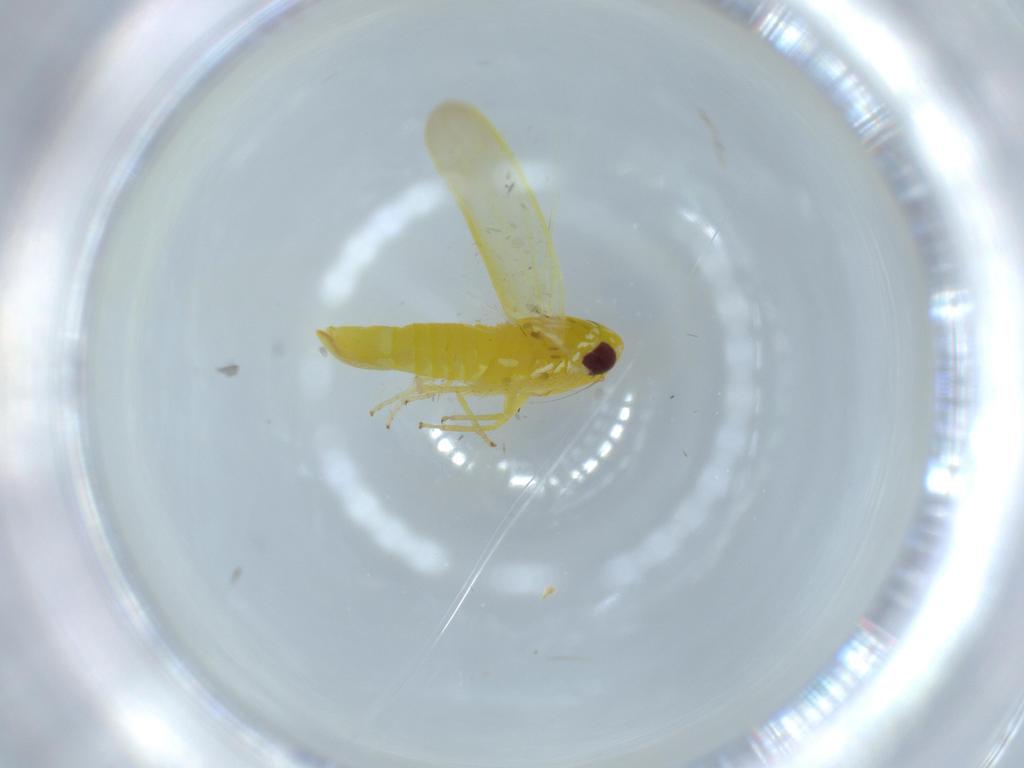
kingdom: Animalia
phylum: Arthropoda
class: Insecta
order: Hemiptera
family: Cicadellidae
